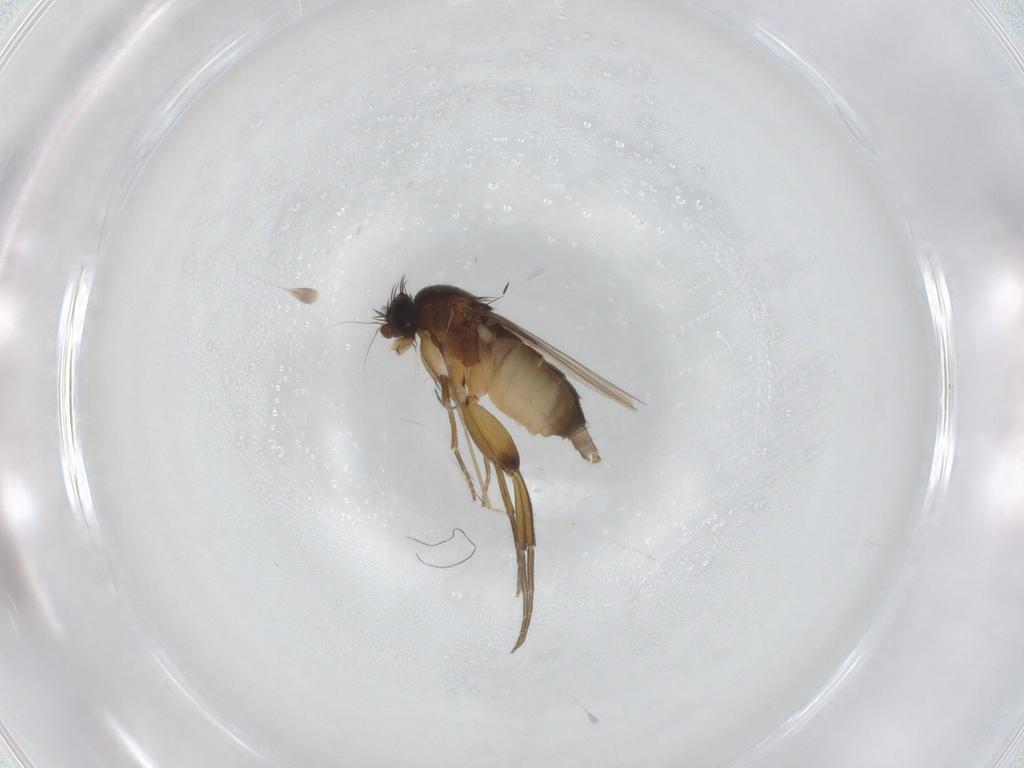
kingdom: Animalia
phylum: Arthropoda
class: Insecta
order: Diptera
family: Phoridae
